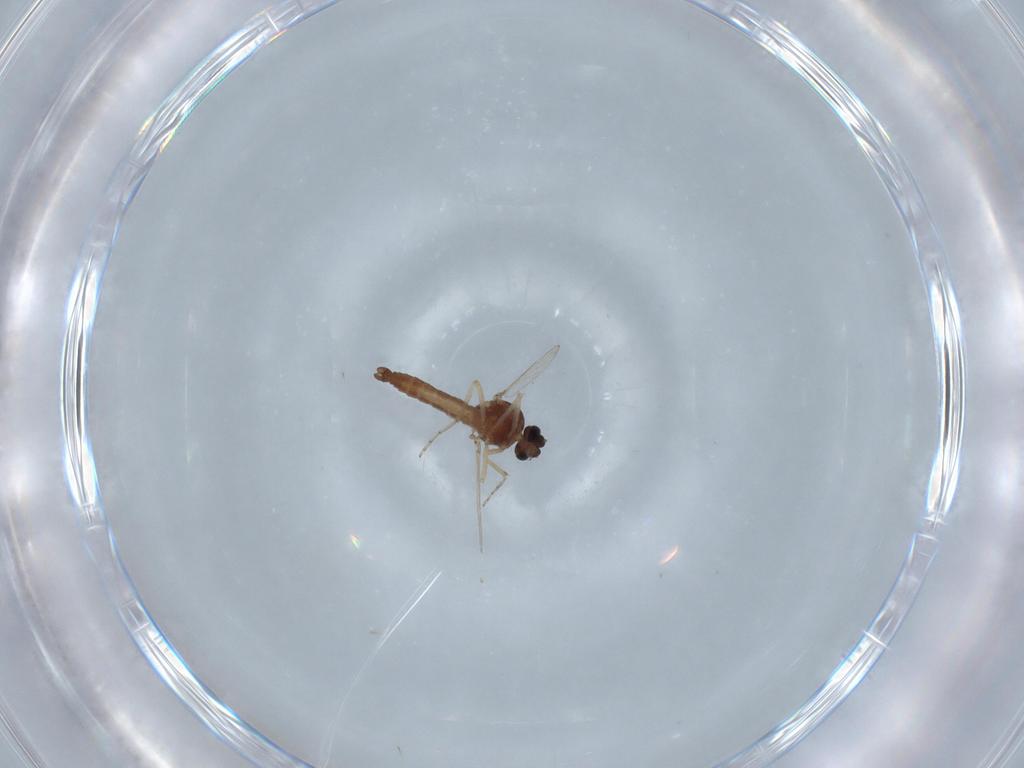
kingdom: Animalia
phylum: Arthropoda
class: Insecta
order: Diptera
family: Ceratopogonidae
